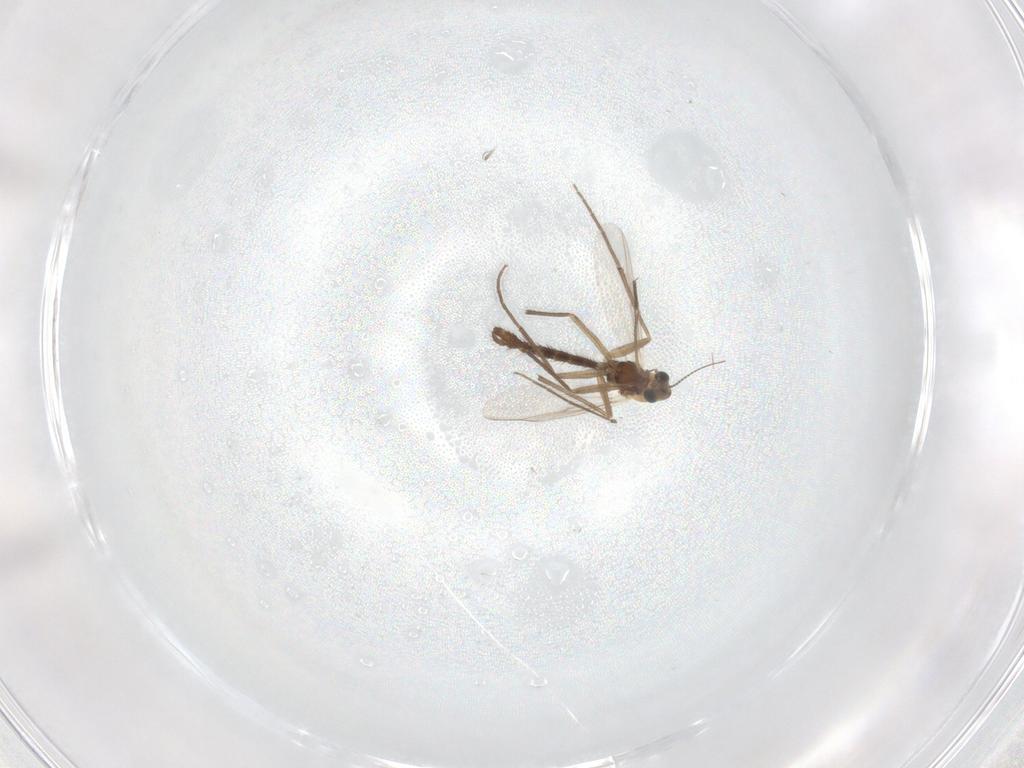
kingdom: Animalia
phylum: Arthropoda
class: Insecta
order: Diptera
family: Chironomidae
